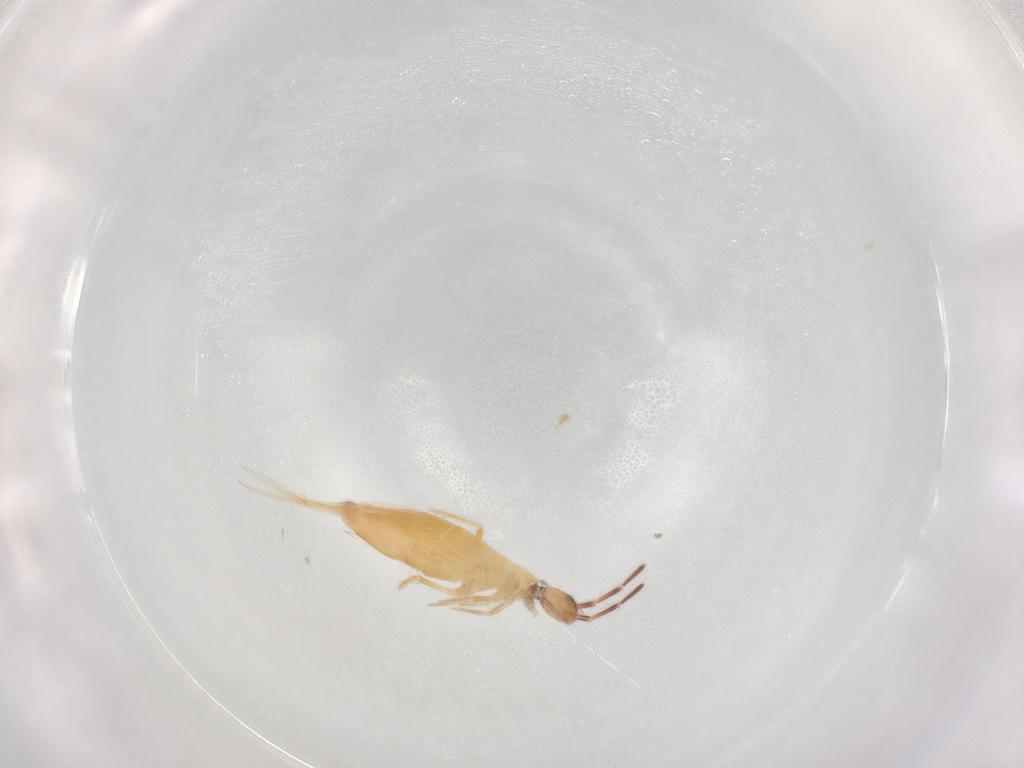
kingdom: Animalia
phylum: Arthropoda
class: Collembola
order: Entomobryomorpha
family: Entomobryidae
